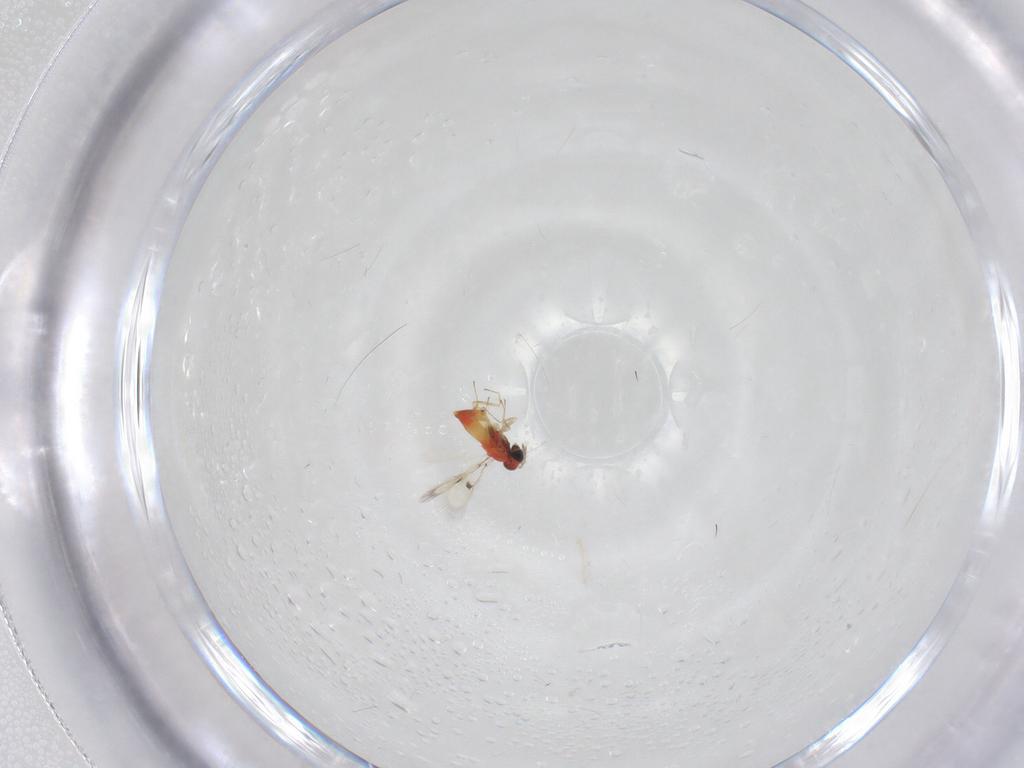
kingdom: Animalia
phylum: Arthropoda
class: Insecta
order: Hymenoptera
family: Trichogrammatidae
